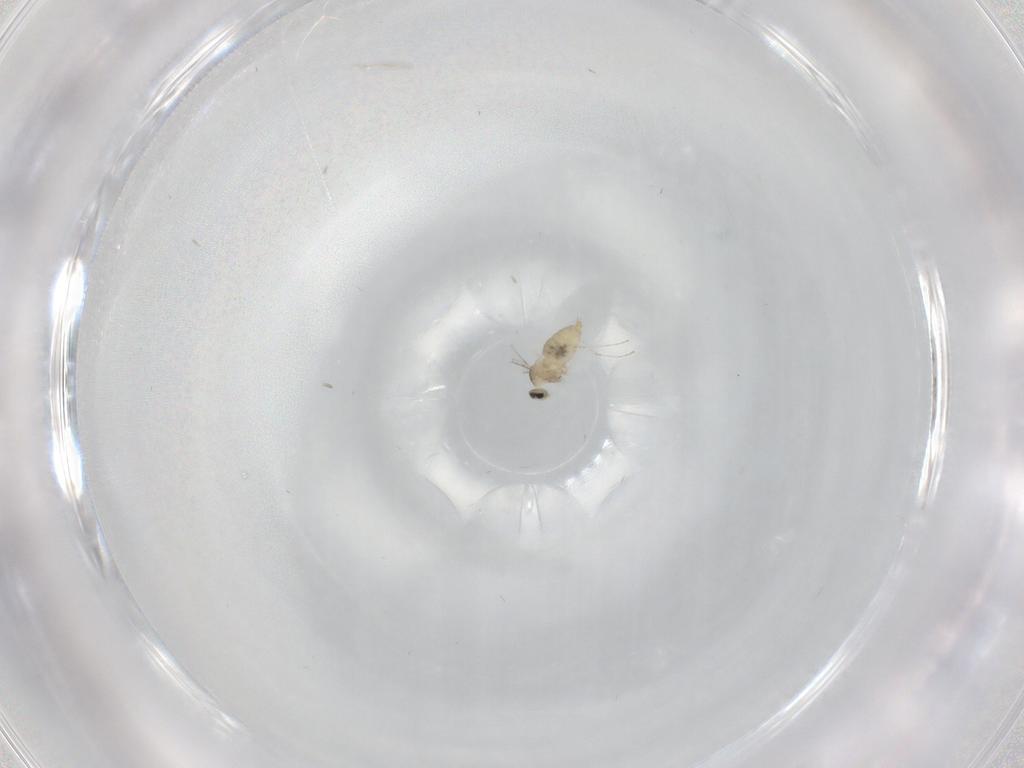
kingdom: Animalia
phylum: Arthropoda
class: Insecta
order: Diptera
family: Cecidomyiidae
